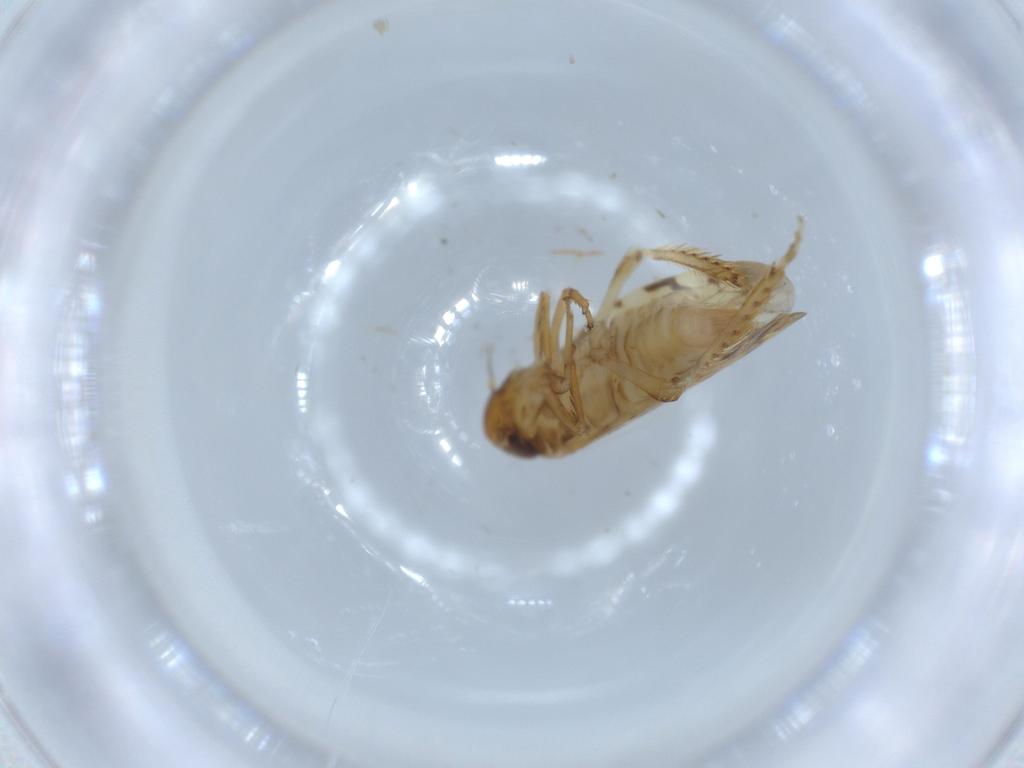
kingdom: Animalia
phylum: Arthropoda
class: Insecta
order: Hemiptera
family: Cicadellidae
